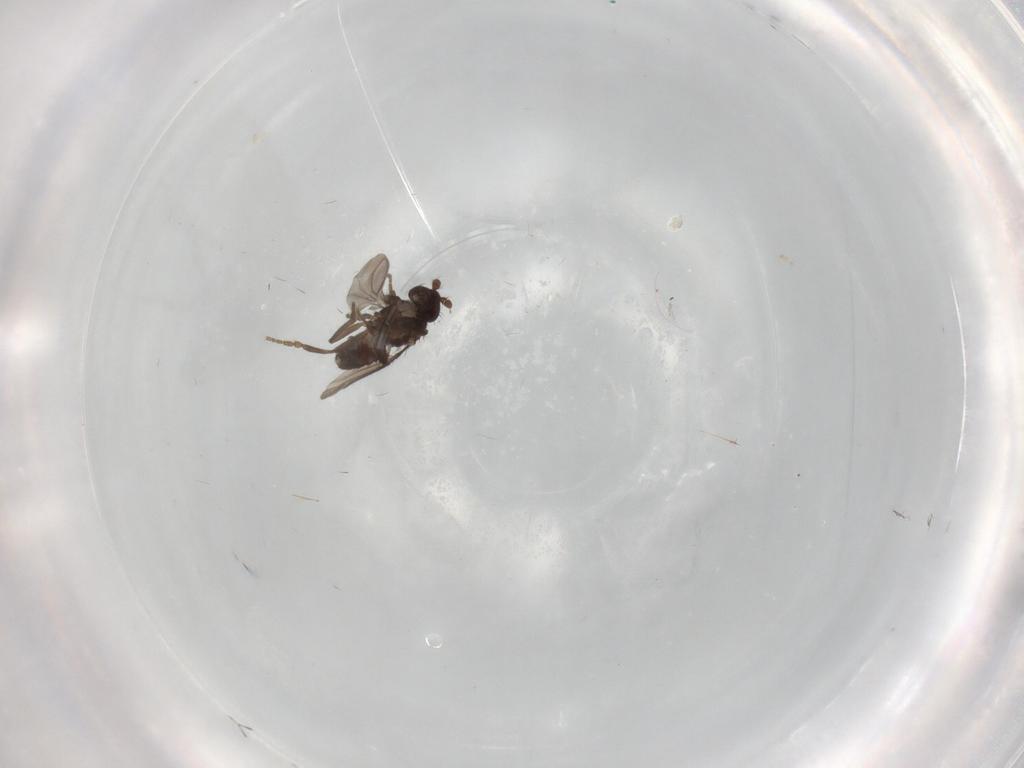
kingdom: Animalia
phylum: Arthropoda
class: Insecta
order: Diptera
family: Sphaeroceridae
